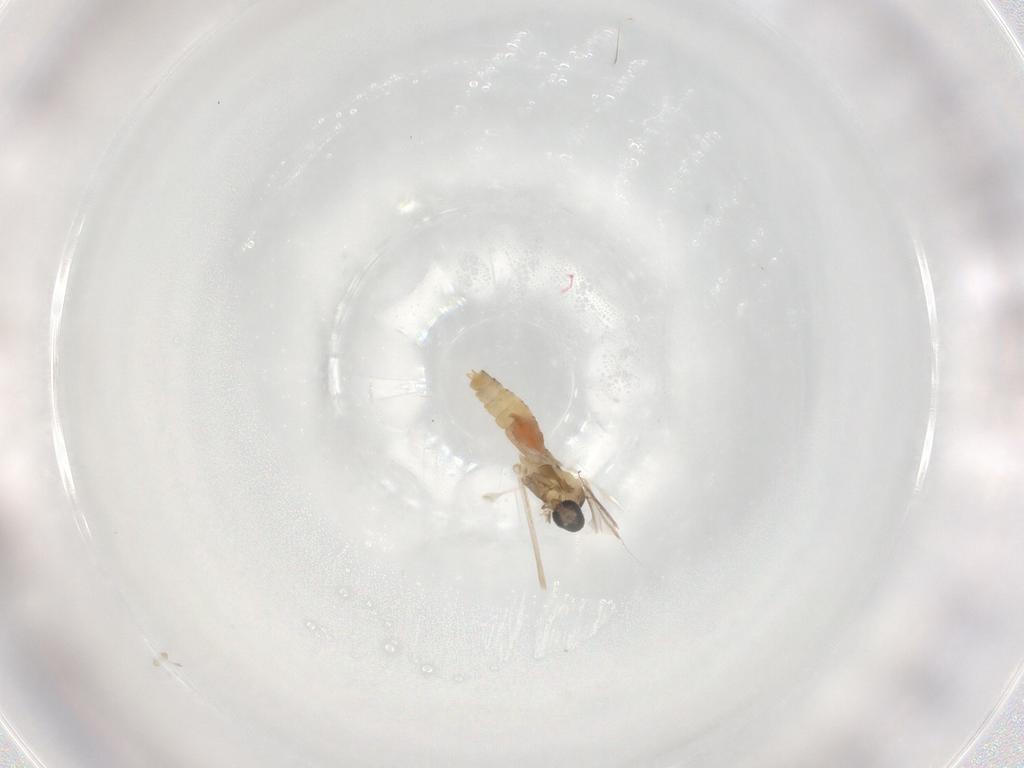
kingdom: Animalia
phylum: Arthropoda
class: Insecta
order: Diptera
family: Cecidomyiidae
